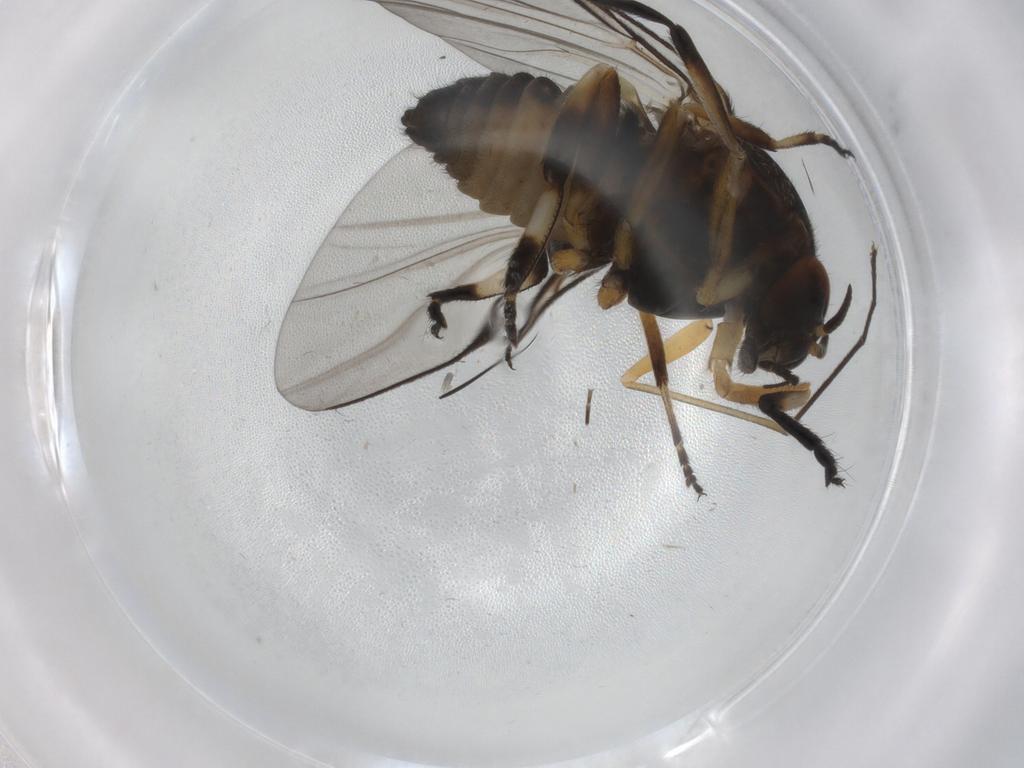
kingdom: Animalia
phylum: Arthropoda
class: Insecta
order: Diptera
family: Cecidomyiidae
